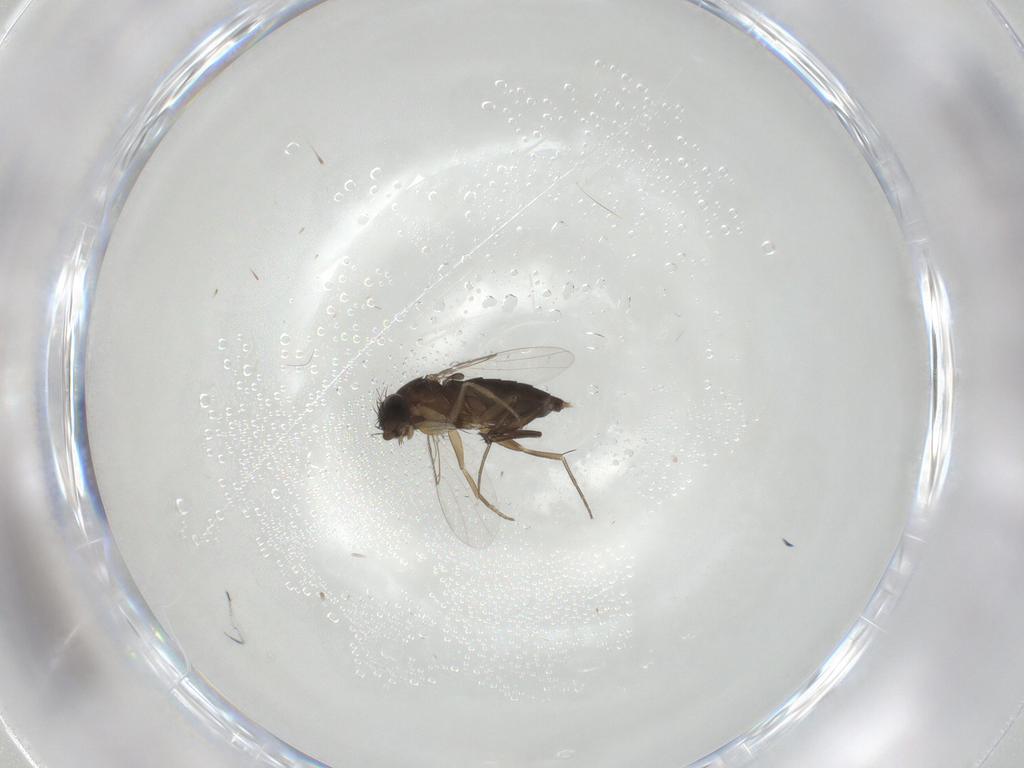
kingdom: Animalia
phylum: Arthropoda
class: Insecta
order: Diptera
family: Phoridae
